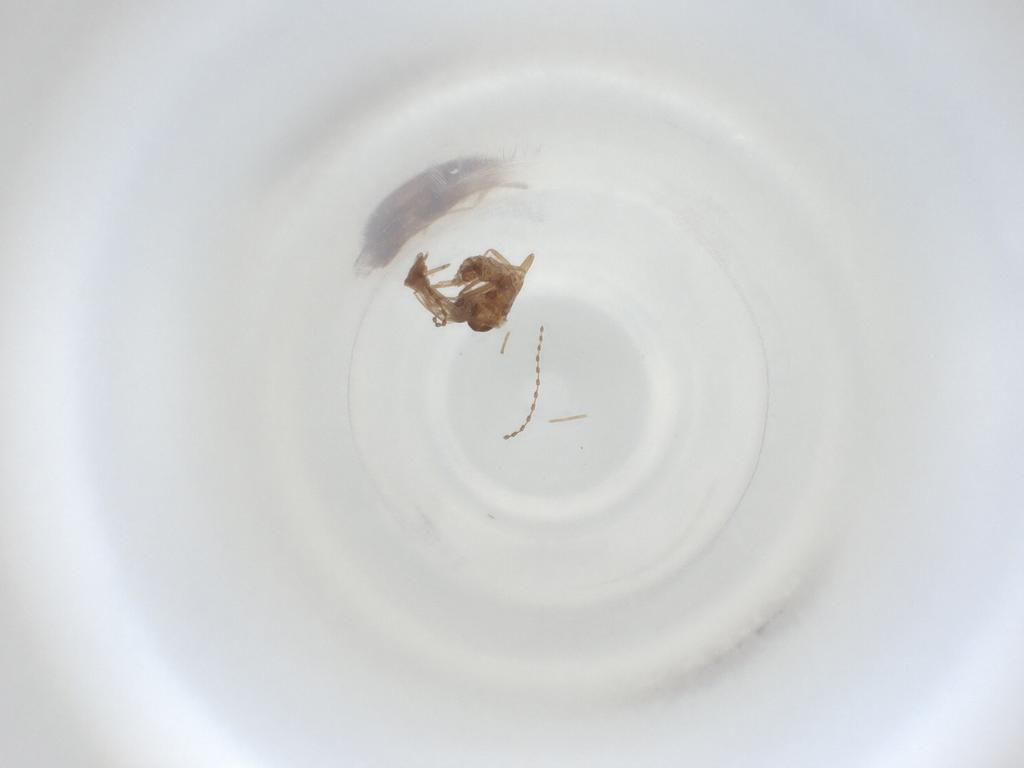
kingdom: Animalia
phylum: Arthropoda
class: Insecta
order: Diptera
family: Cecidomyiidae
